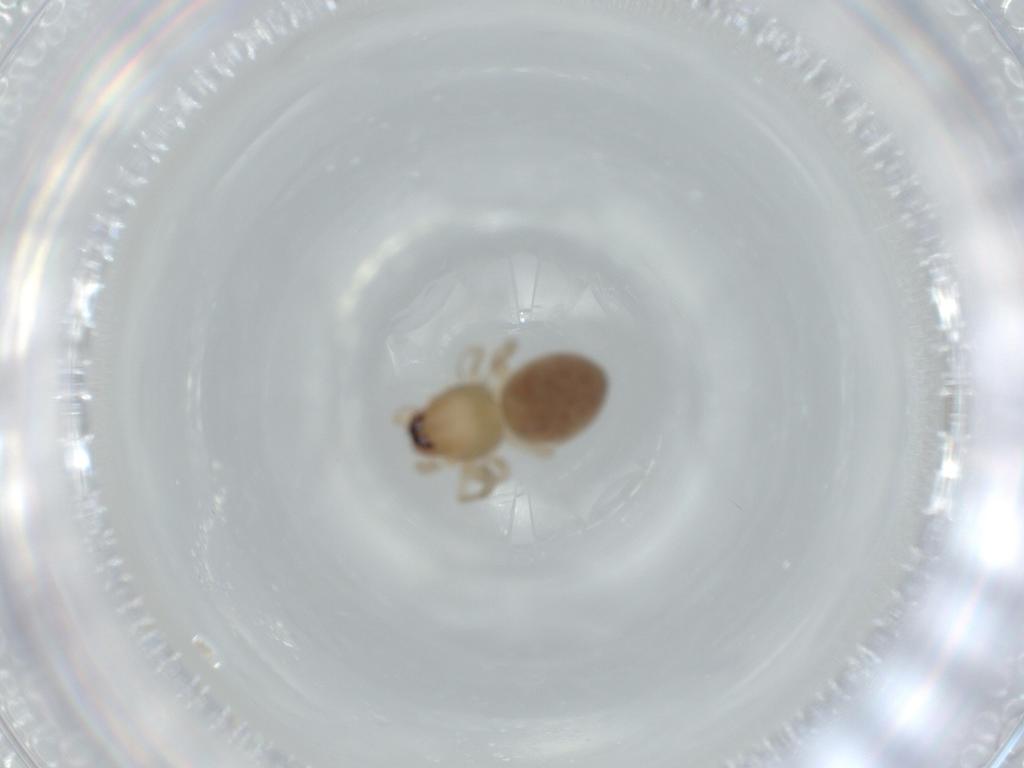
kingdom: Animalia
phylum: Arthropoda
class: Arachnida
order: Araneae
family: Trachelidae
